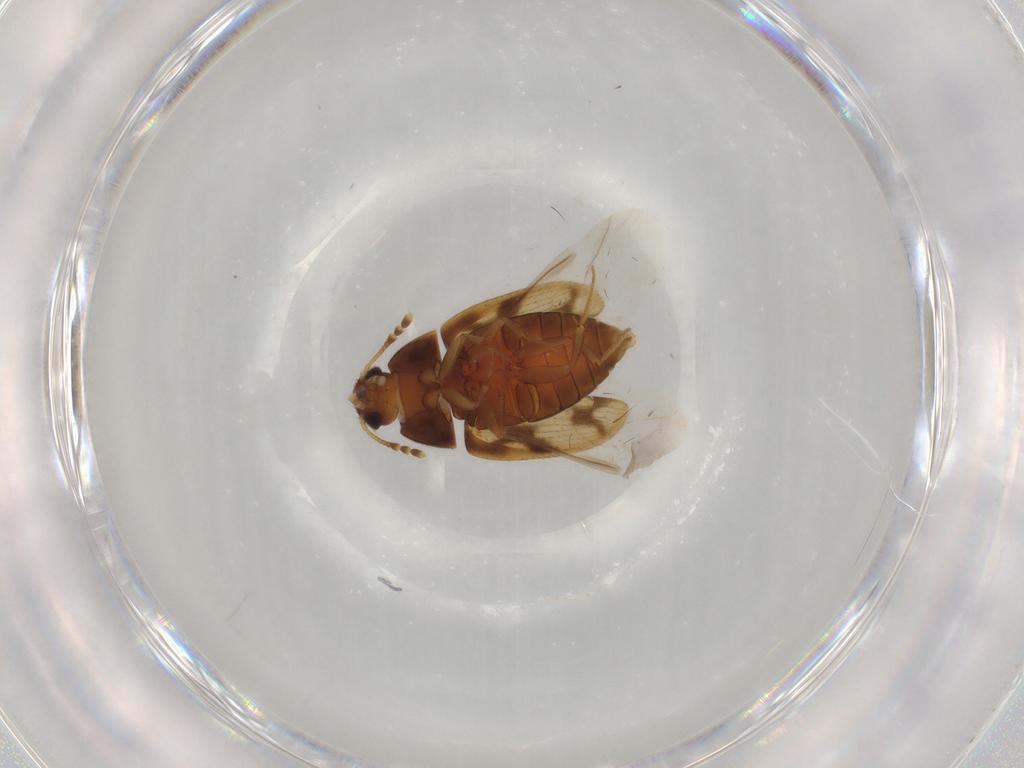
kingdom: Animalia
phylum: Arthropoda
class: Insecta
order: Coleoptera
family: Mycetophagidae
